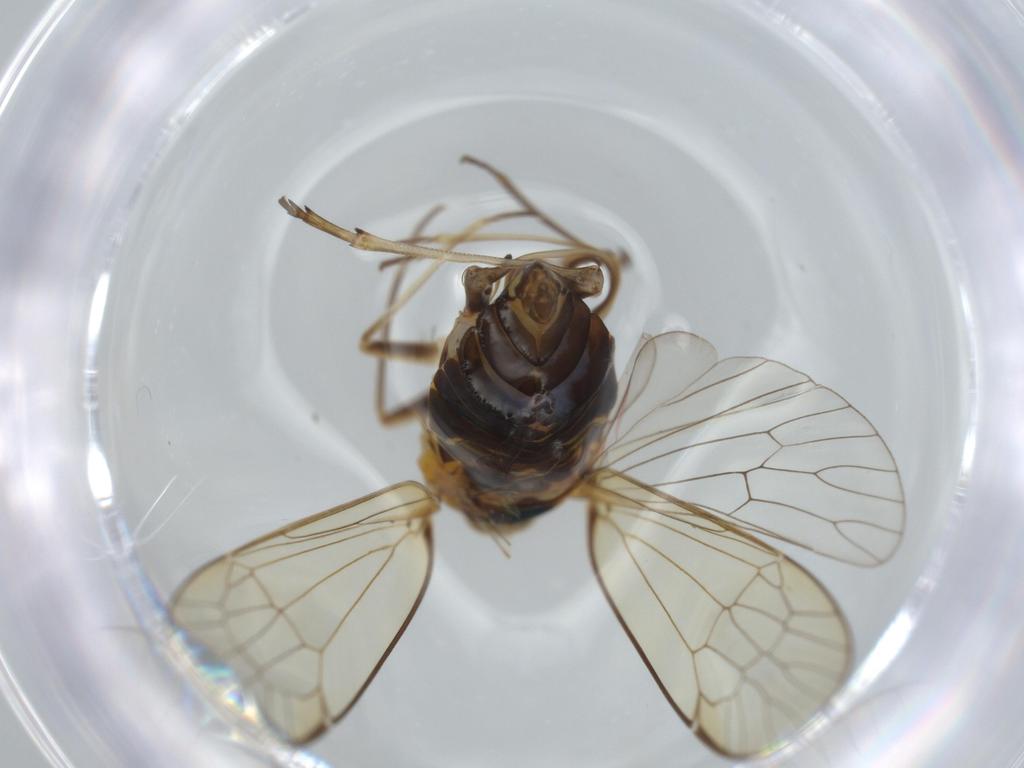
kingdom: Animalia
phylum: Arthropoda
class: Insecta
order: Hemiptera
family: Kinnaridae
